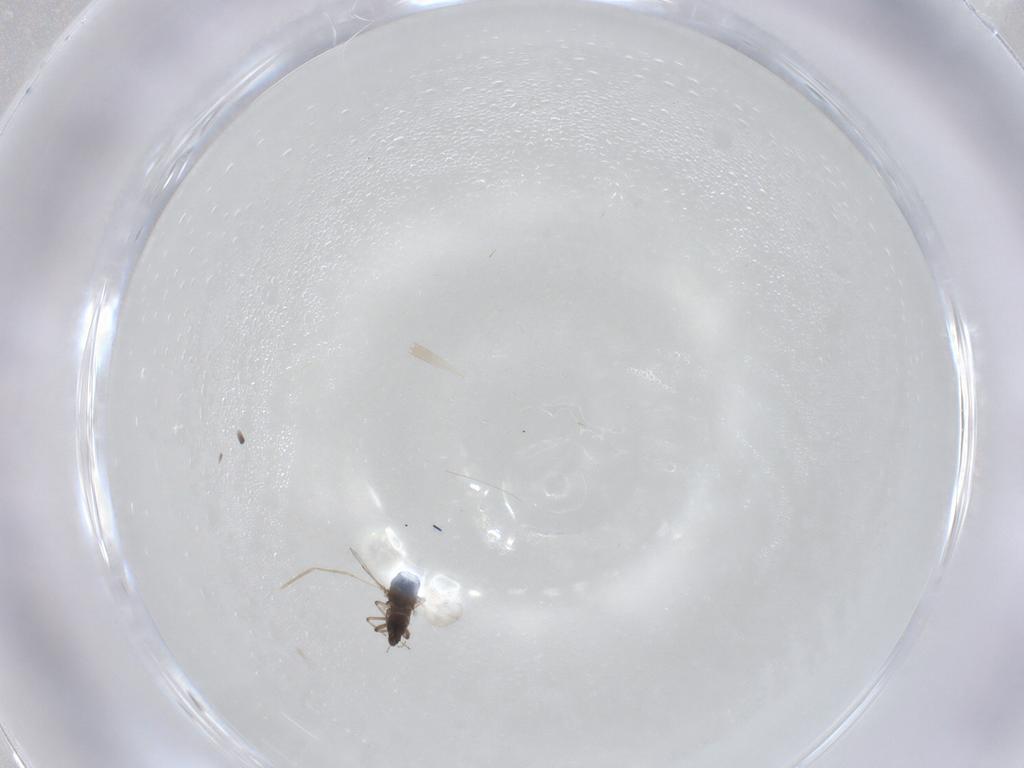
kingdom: Animalia
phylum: Arthropoda
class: Insecta
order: Diptera
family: Ceratopogonidae
